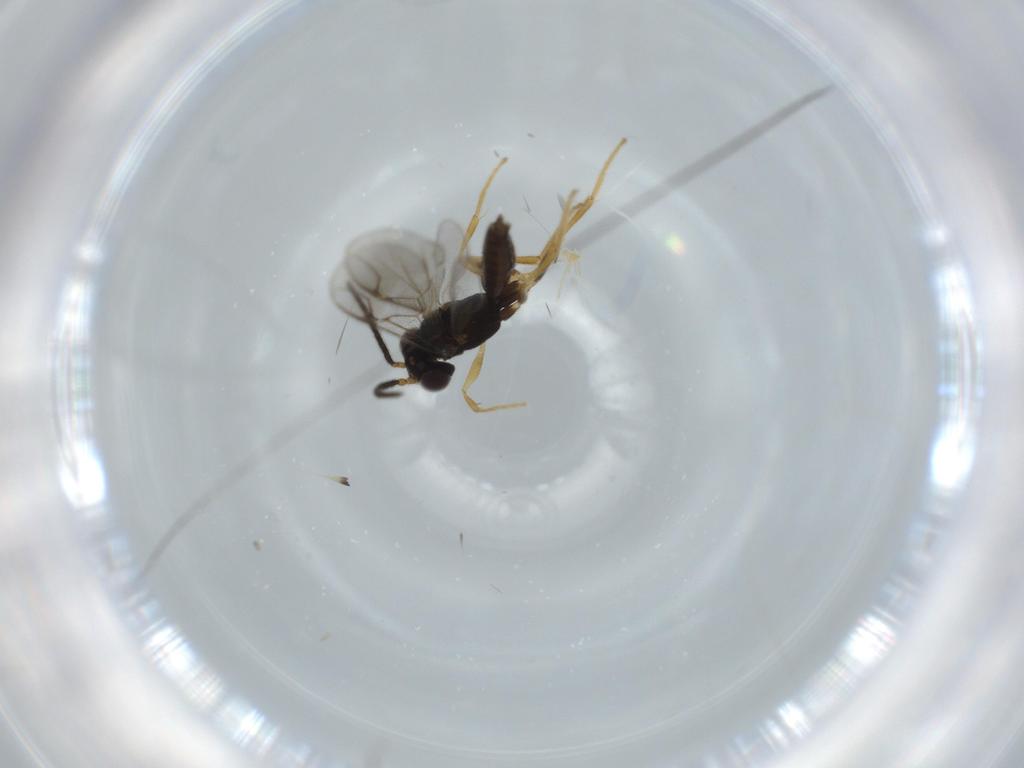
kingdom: Animalia
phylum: Arthropoda
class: Insecta
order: Hymenoptera
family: Dryinidae
